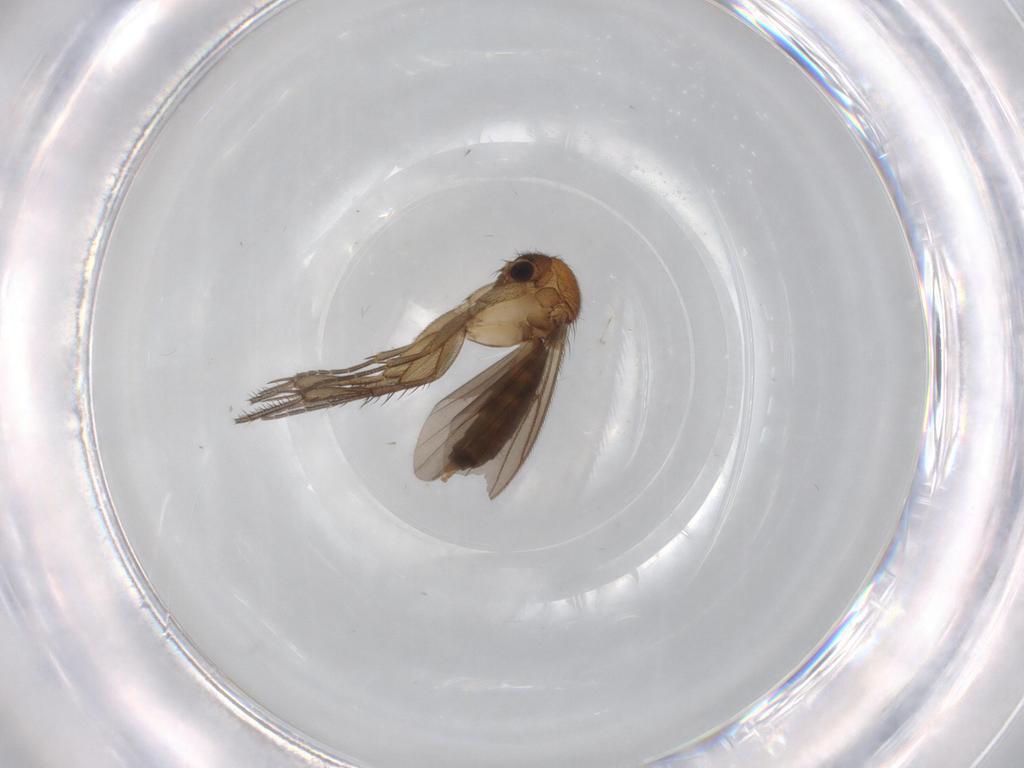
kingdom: Animalia
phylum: Arthropoda
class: Insecta
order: Diptera
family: Mycetophilidae
